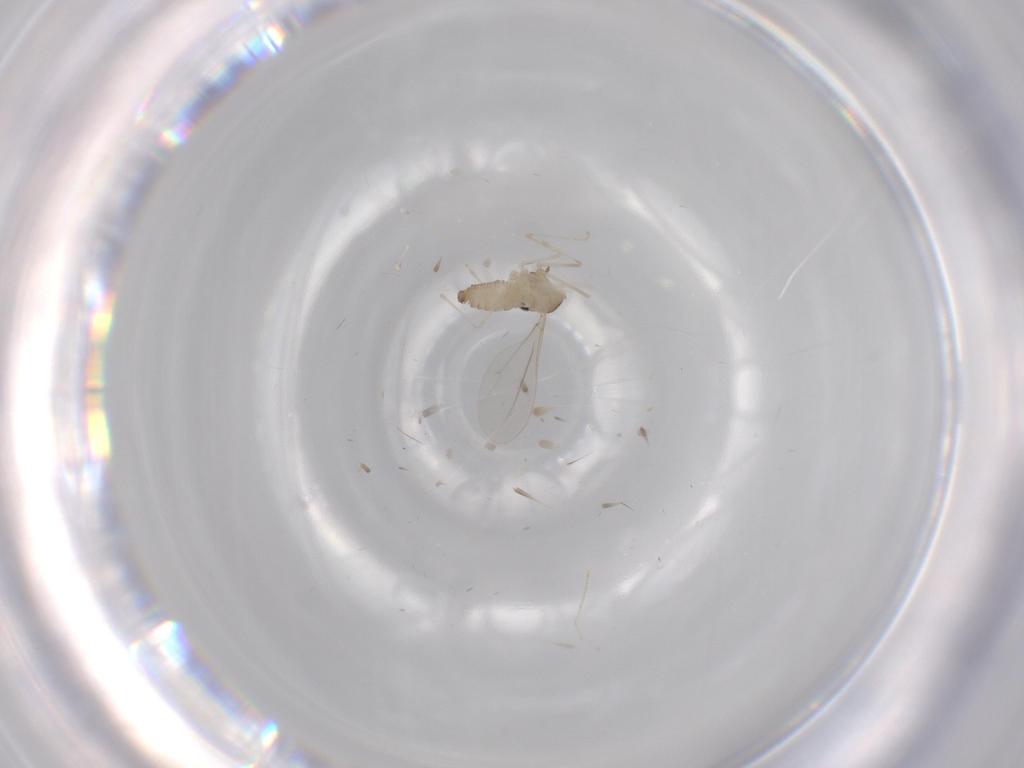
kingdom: Animalia
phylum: Arthropoda
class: Insecta
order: Diptera
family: Cecidomyiidae
